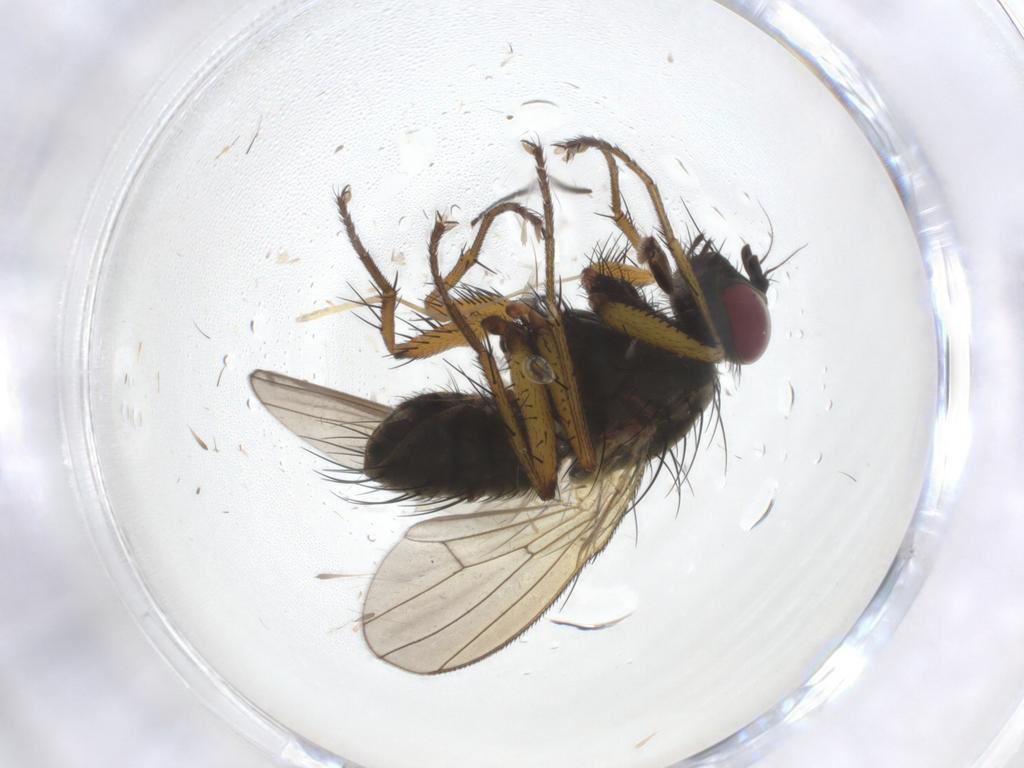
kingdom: Animalia
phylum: Arthropoda
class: Insecta
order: Diptera
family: Muscidae
